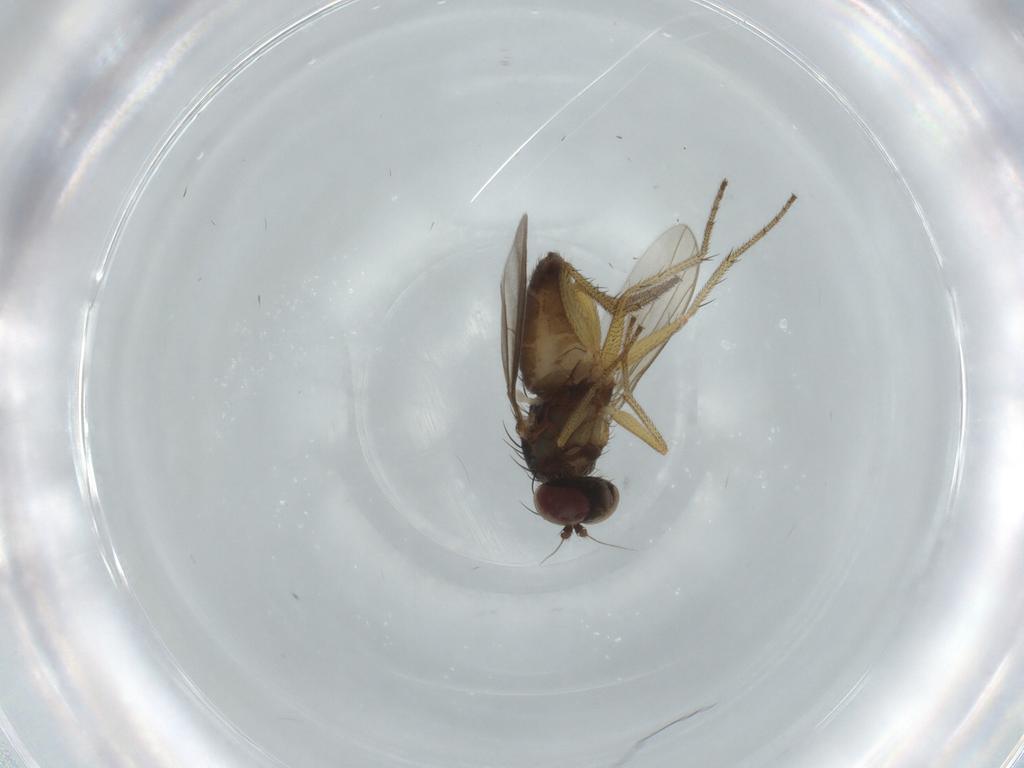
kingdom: Animalia
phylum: Arthropoda
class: Insecta
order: Diptera
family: Dolichopodidae
